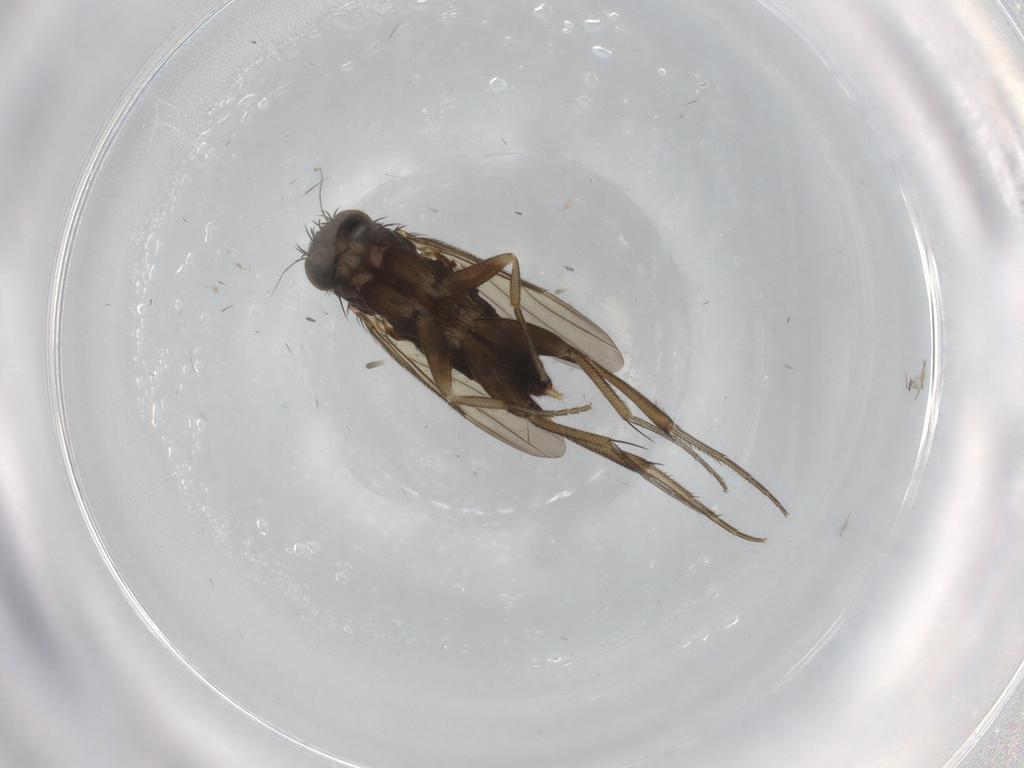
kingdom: Animalia
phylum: Arthropoda
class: Insecta
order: Diptera
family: Phoridae
